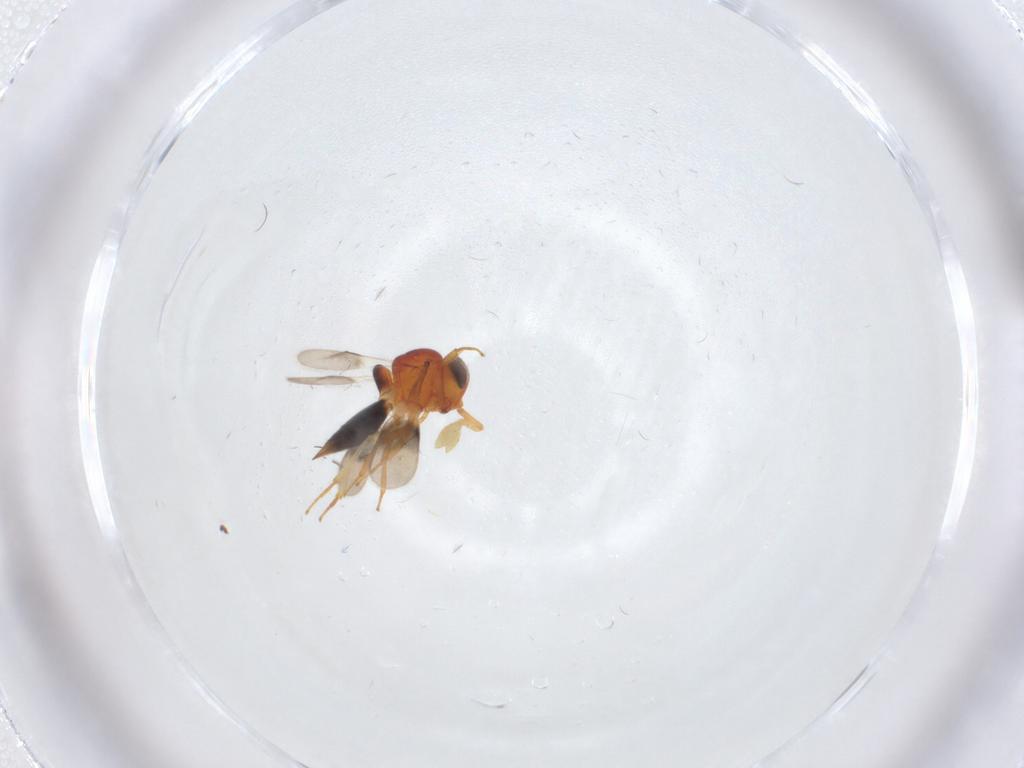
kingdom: Animalia
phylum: Arthropoda
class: Insecta
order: Hymenoptera
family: Scelionidae
